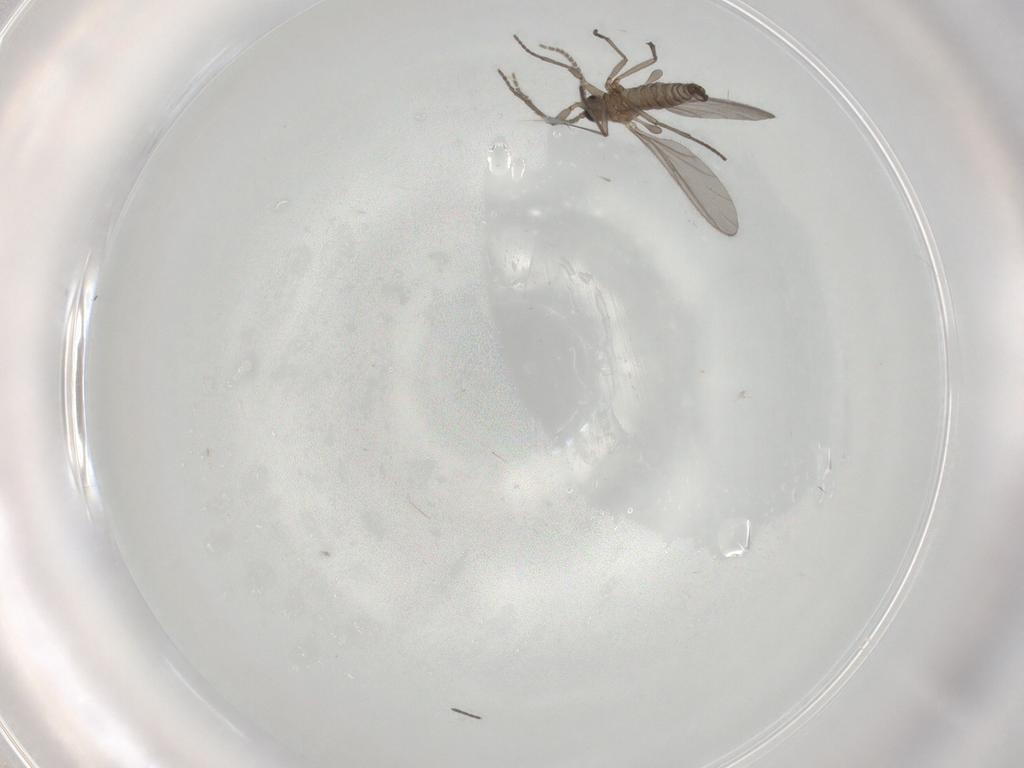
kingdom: Animalia
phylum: Arthropoda
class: Insecta
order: Diptera
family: Sciaridae
